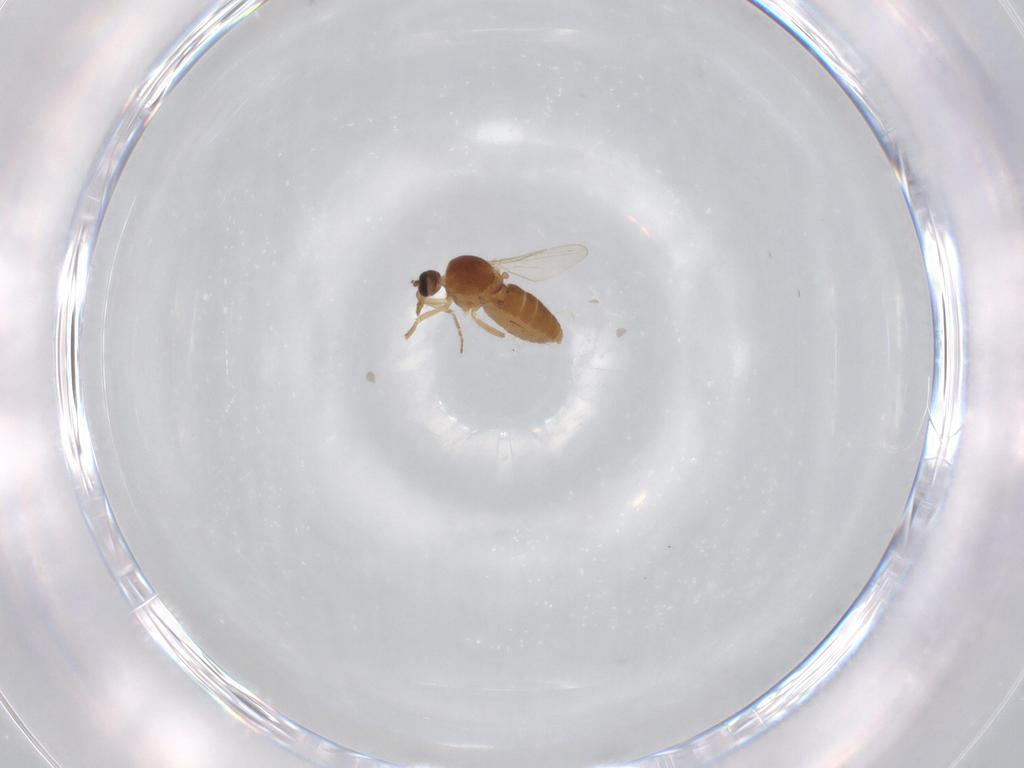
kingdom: Animalia
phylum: Arthropoda
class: Insecta
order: Diptera
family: Ceratopogonidae
